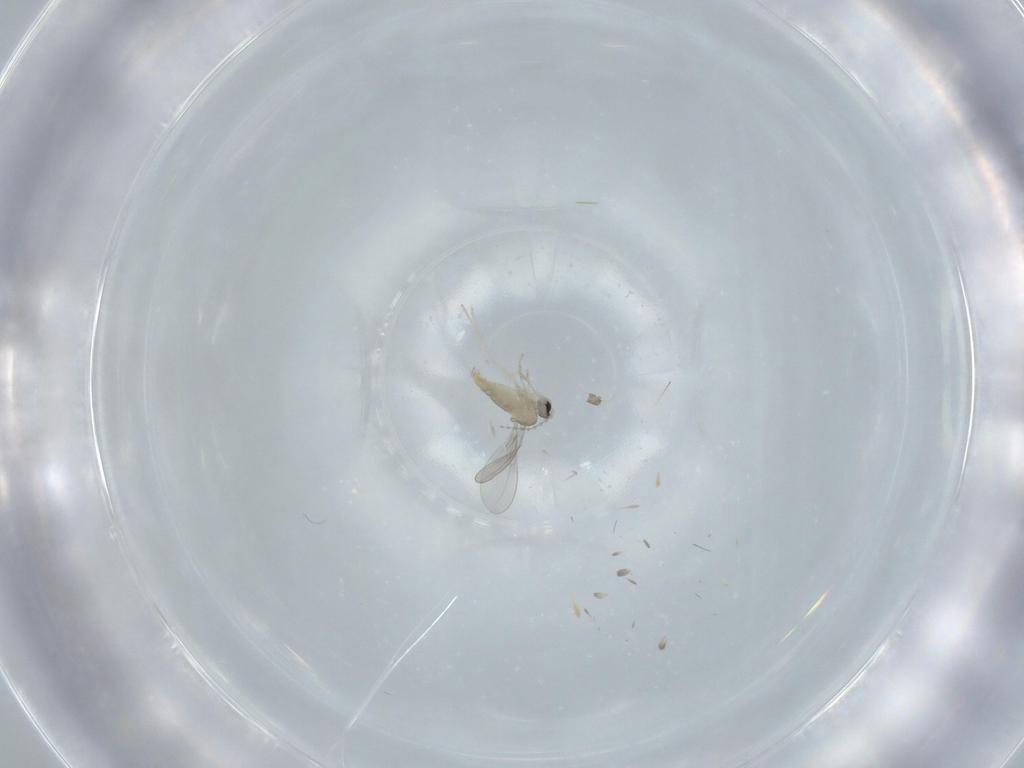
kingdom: Animalia
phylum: Arthropoda
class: Insecta
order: Diptera
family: Sciaridae
